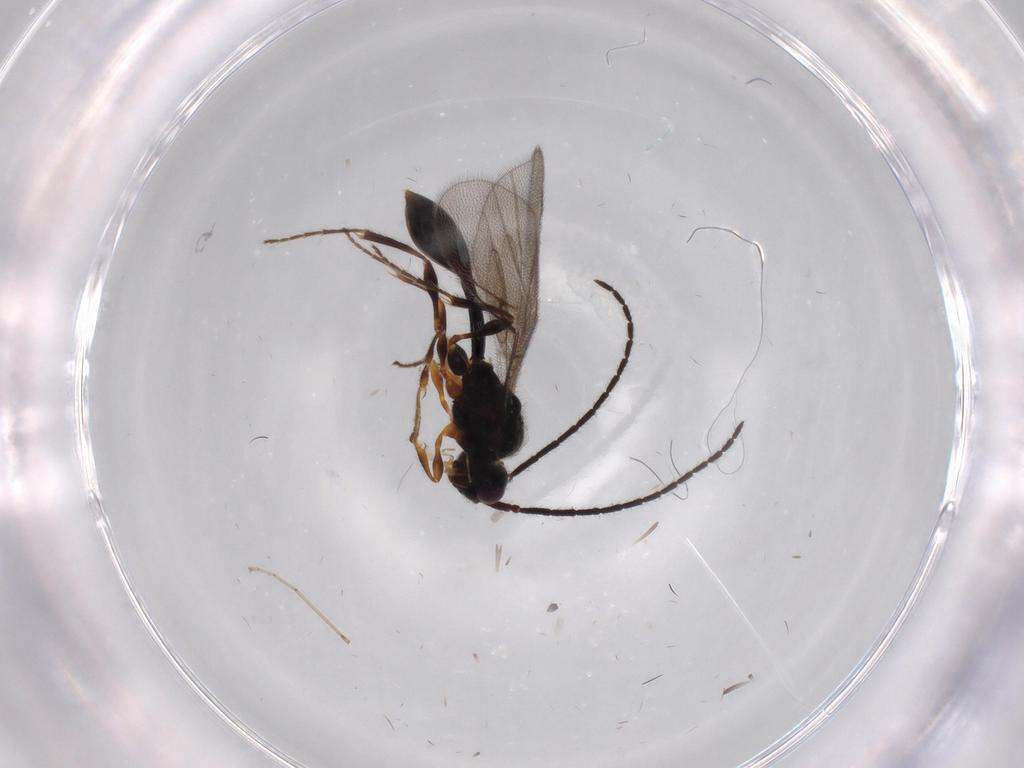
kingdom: Animalia
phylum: Arthropoda
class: Insecta
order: Hymenoptera
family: Diapriidae
